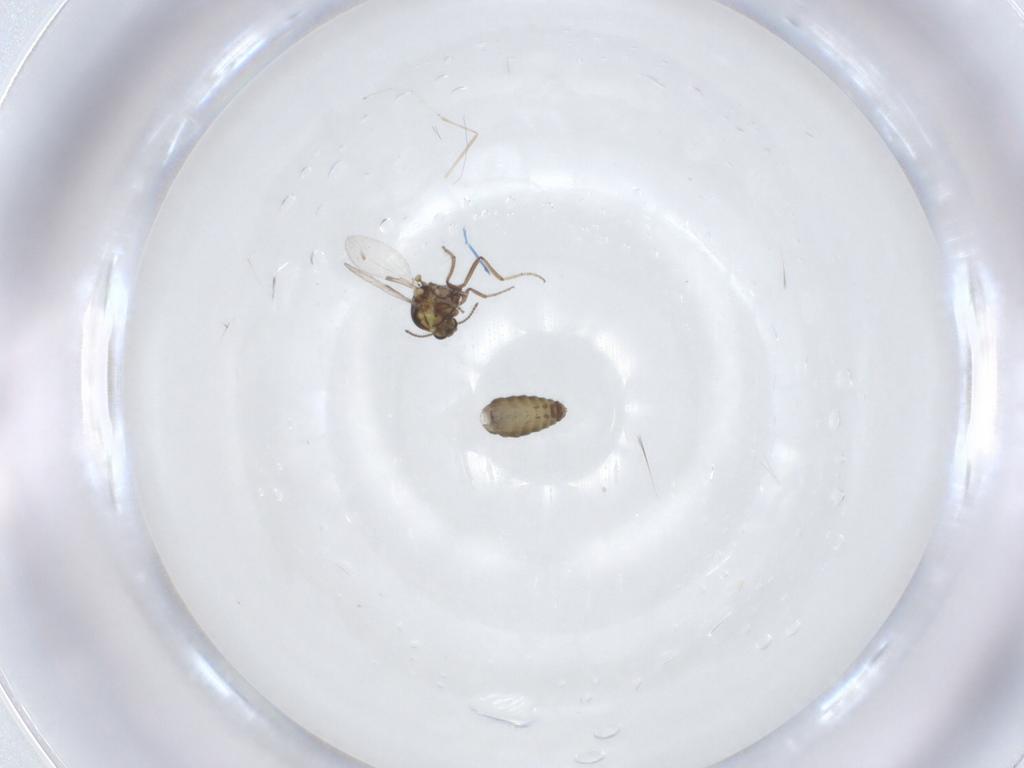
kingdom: Animalia
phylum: Arthropoda
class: Insecta
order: Diptera
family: Ceratopogonidae
